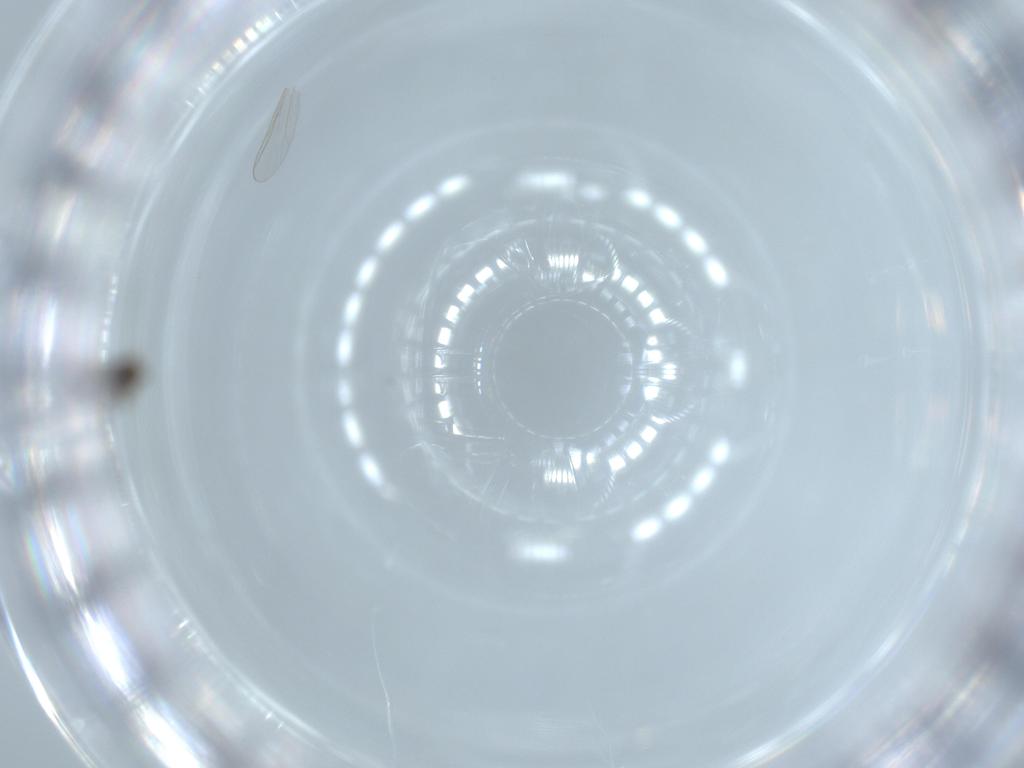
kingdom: Animalia
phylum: Arthropoda
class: Insecta
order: Diptera
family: Cecidomyiidae
